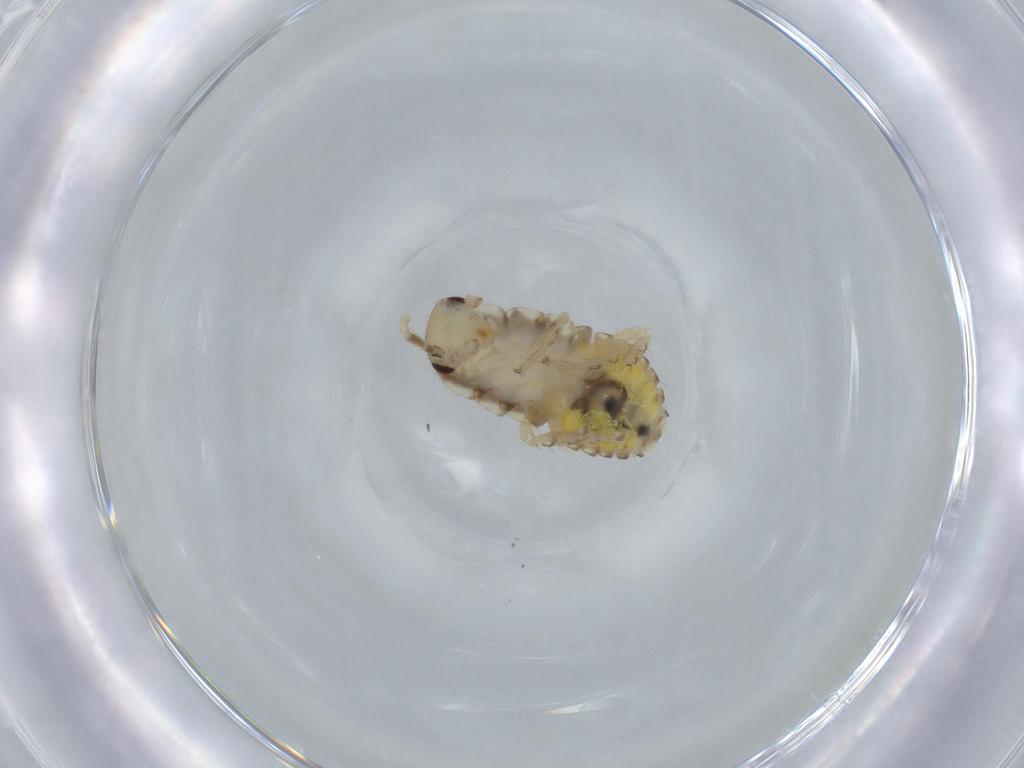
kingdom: Animalia
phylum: Arthropoda
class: Insecta
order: Blattodea
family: Ectobiidae
